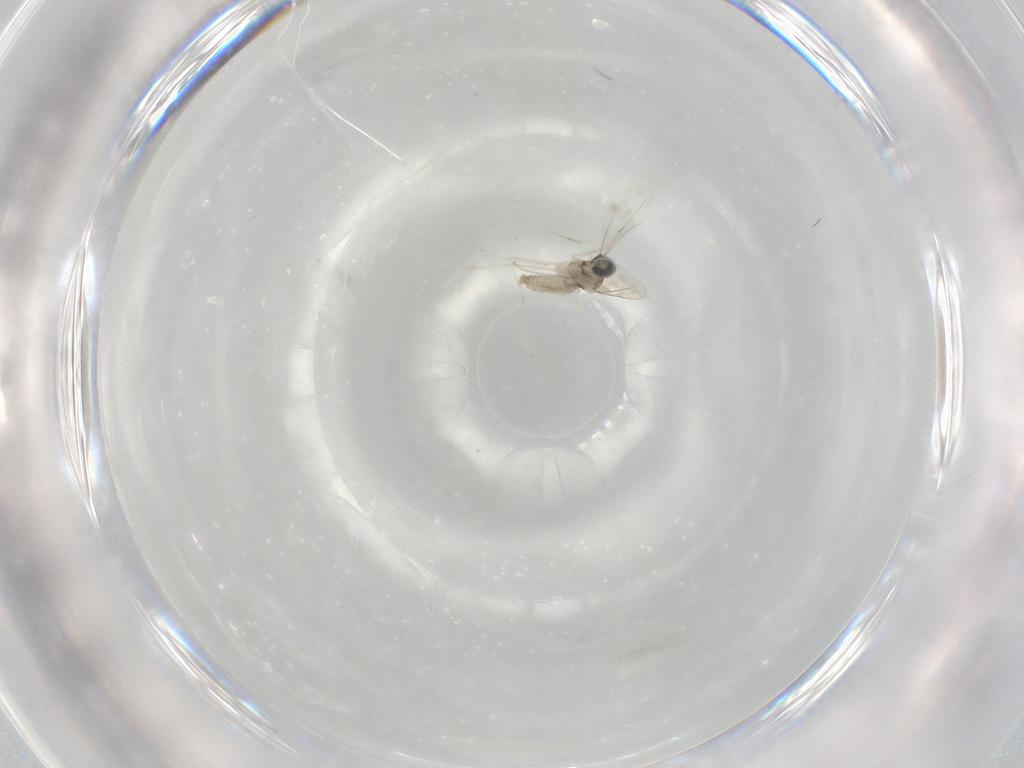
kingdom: Animalia
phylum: Arthropoda
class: Insecta
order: Diptera
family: Cecidomyiidae
